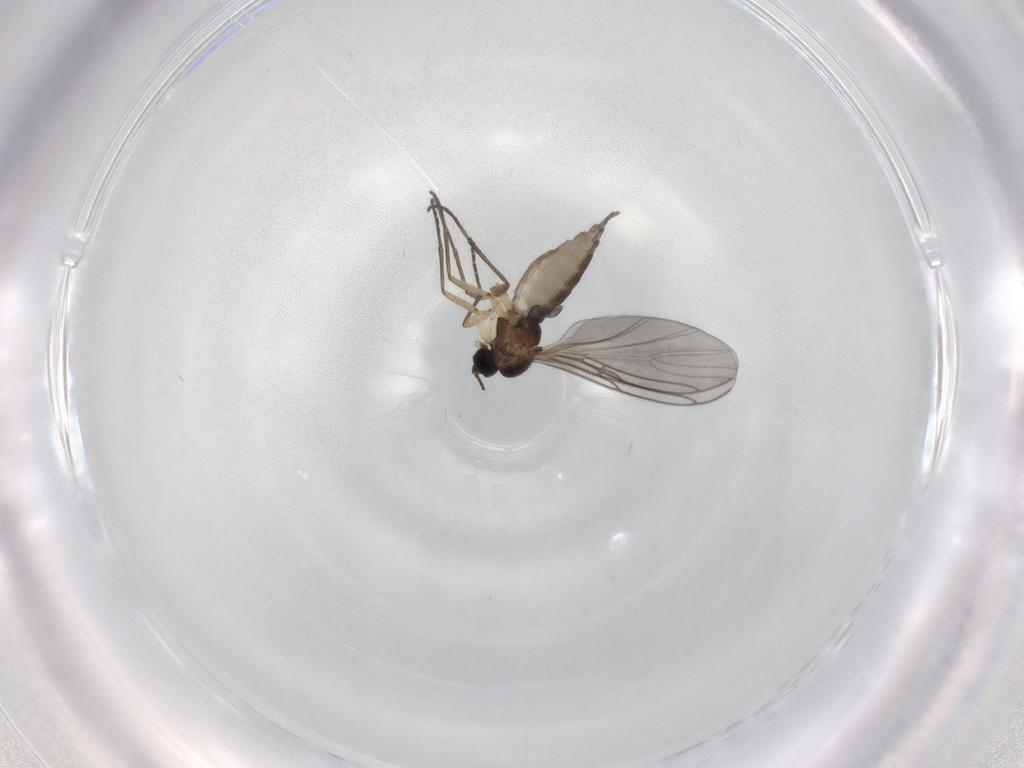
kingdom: Animalia
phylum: Arthropoda
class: Insecta
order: Diptera
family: Sciaridae
